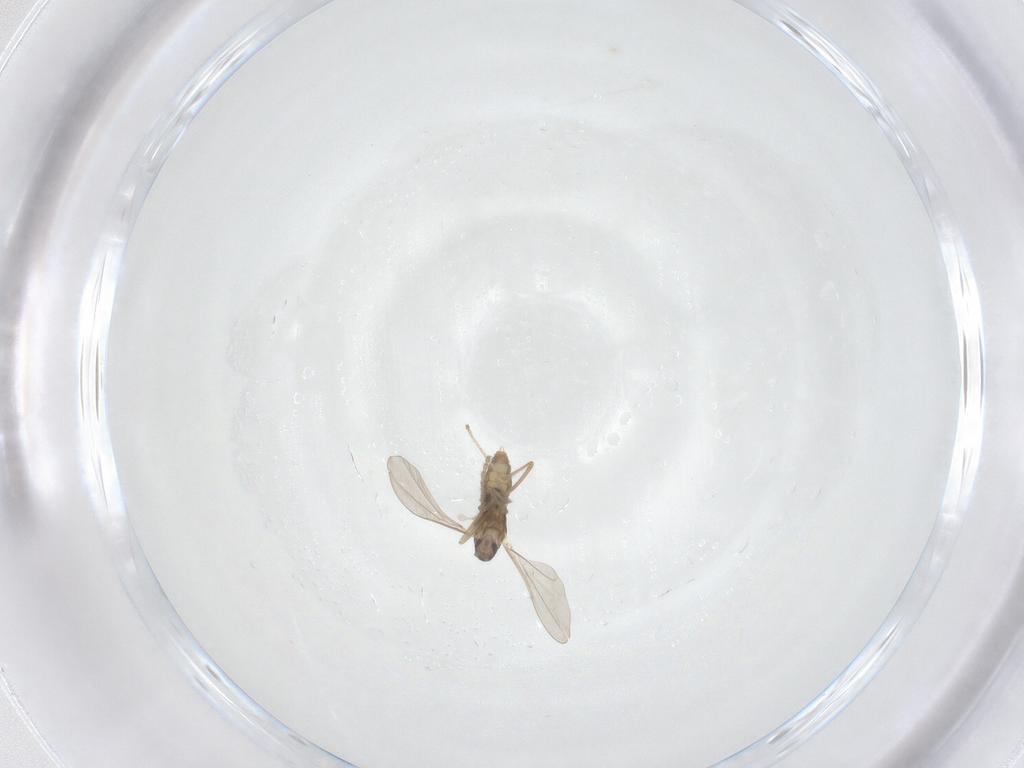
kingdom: Animalia
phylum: Arthropoda
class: Insecta
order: Diptera
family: Cecidomyiidae
